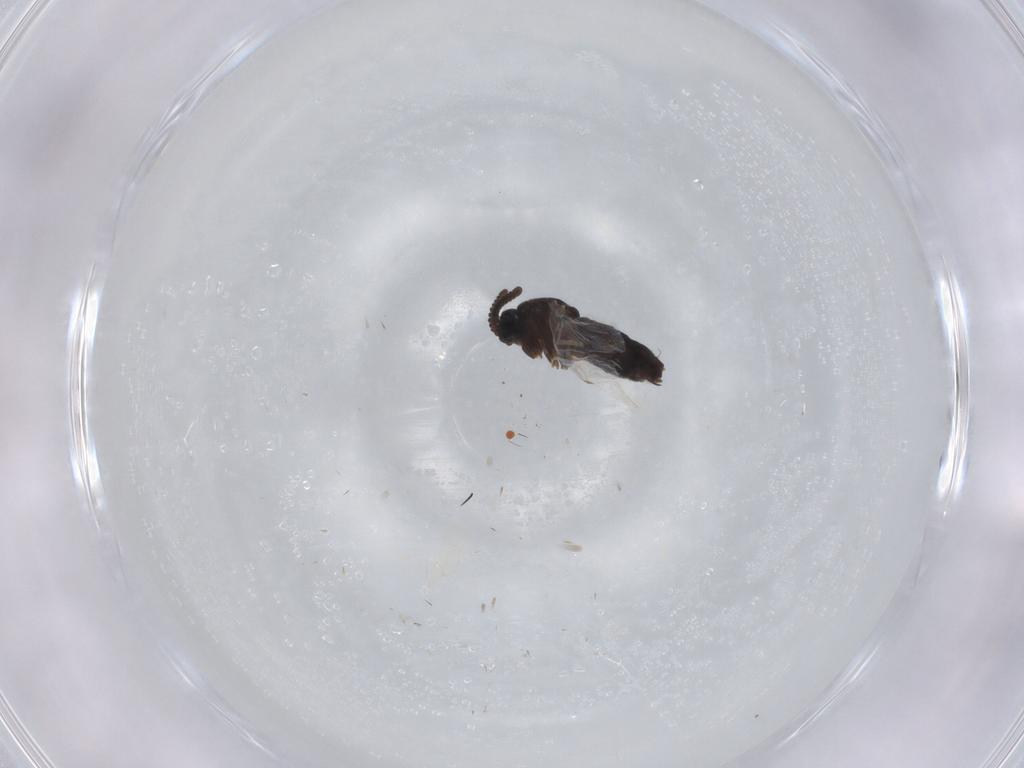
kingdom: Animalia
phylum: Arthropoda
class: Insecta
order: Diptera
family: Scatopsidae
